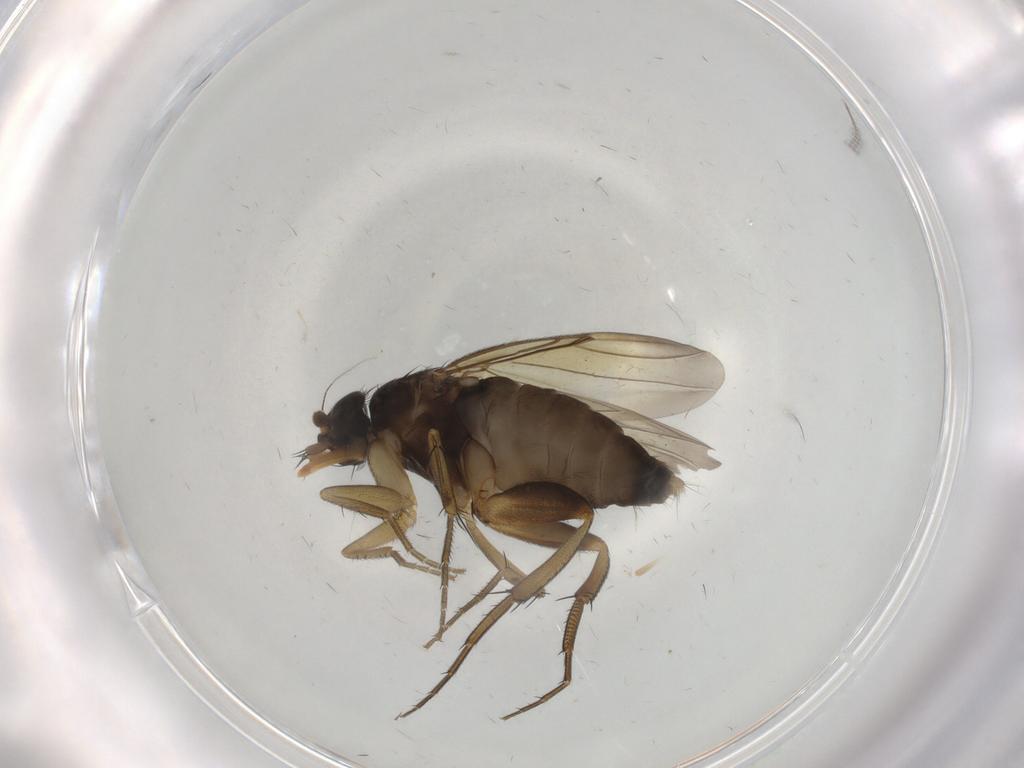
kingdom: Animalia
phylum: Arthropoda
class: Insecta
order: Diptera
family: Cecidomyiidae
